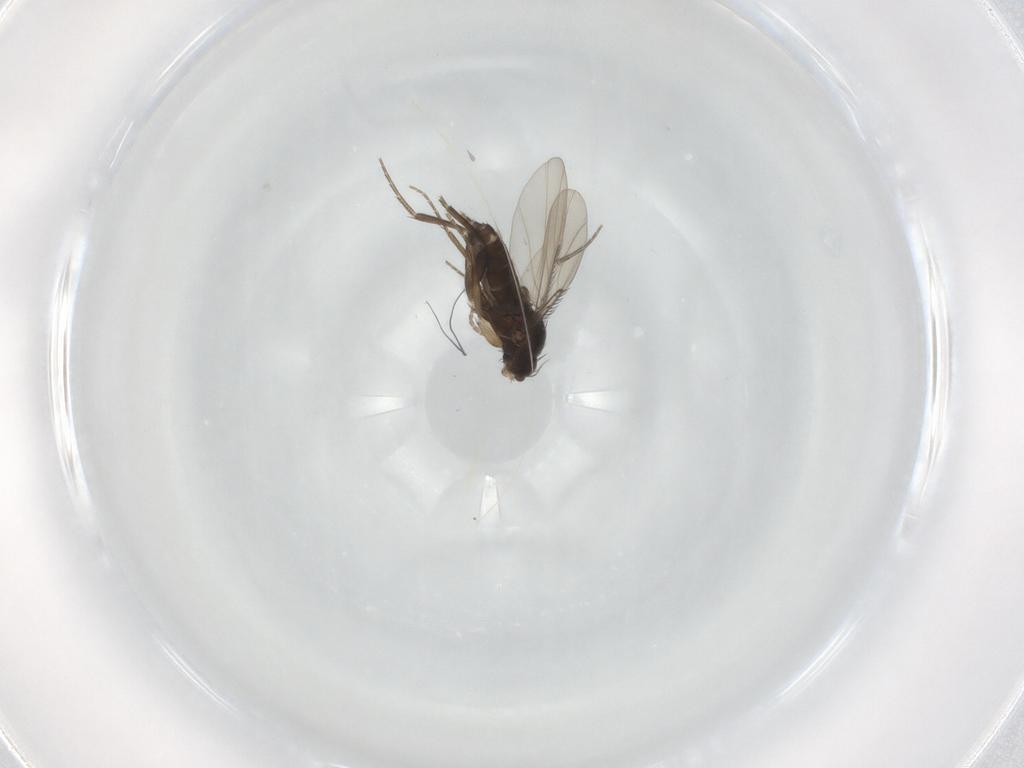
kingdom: Animalia
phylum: Arthropoda
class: Insecta
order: Diptera
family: Phoridae
